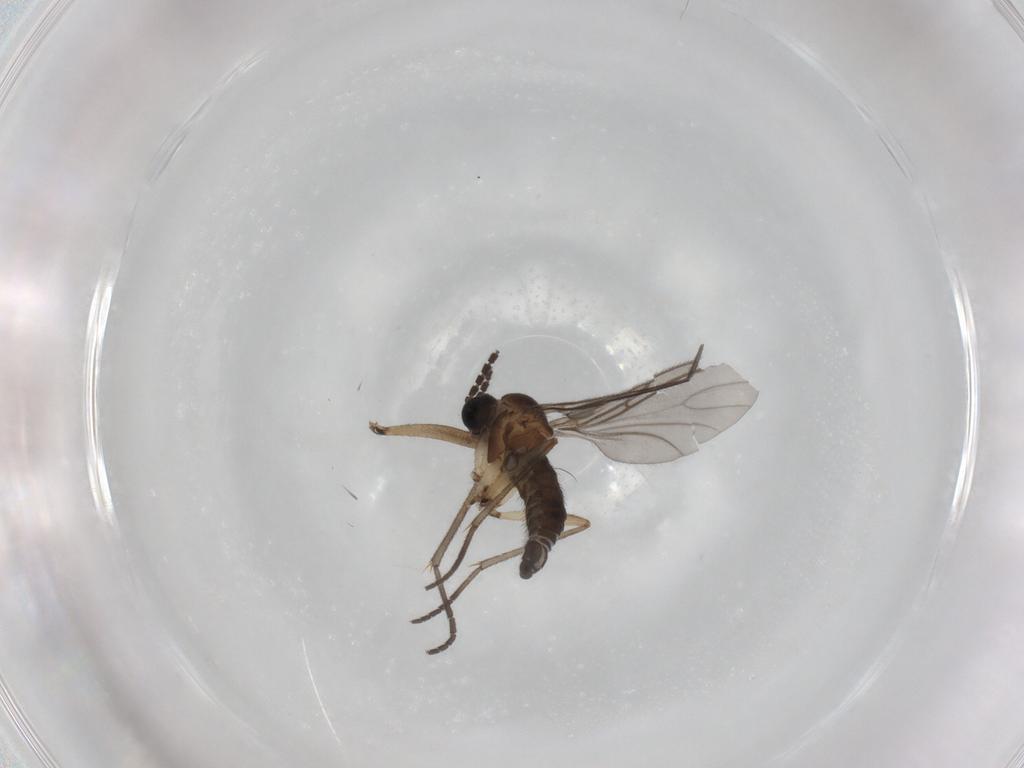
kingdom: Animalia
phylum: Arthropoda
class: Insecta
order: Diptera
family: Sciaridae
